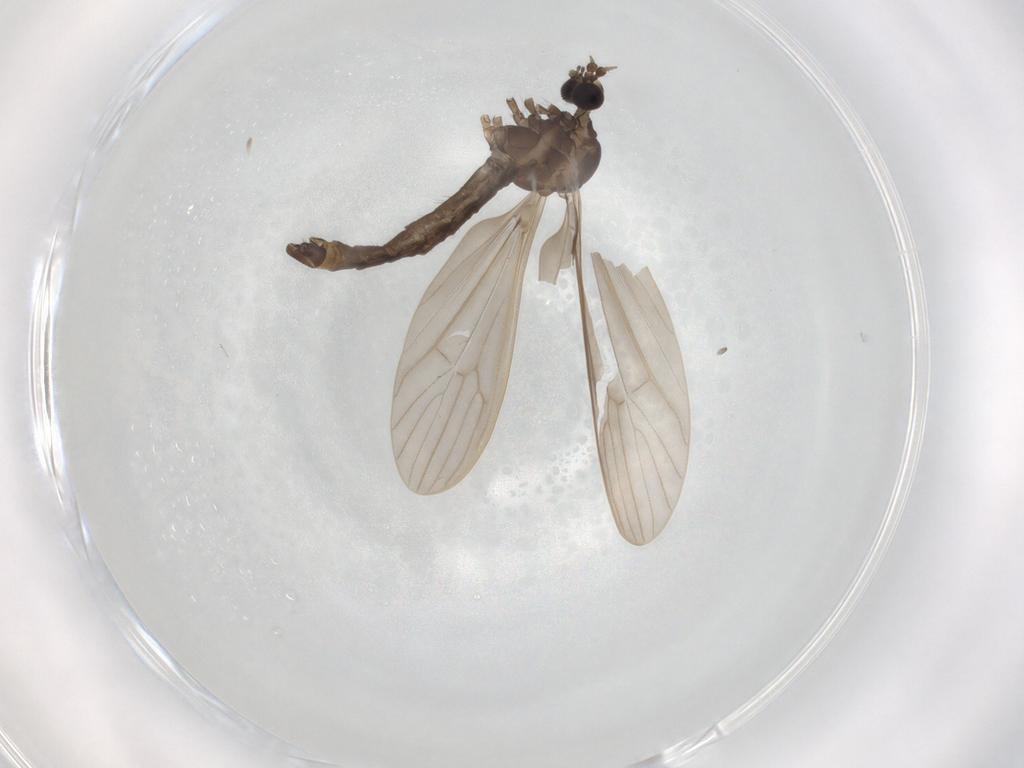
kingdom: Animalia
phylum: Arthropoda
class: Insecta
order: Diptera
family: Limoniidae
